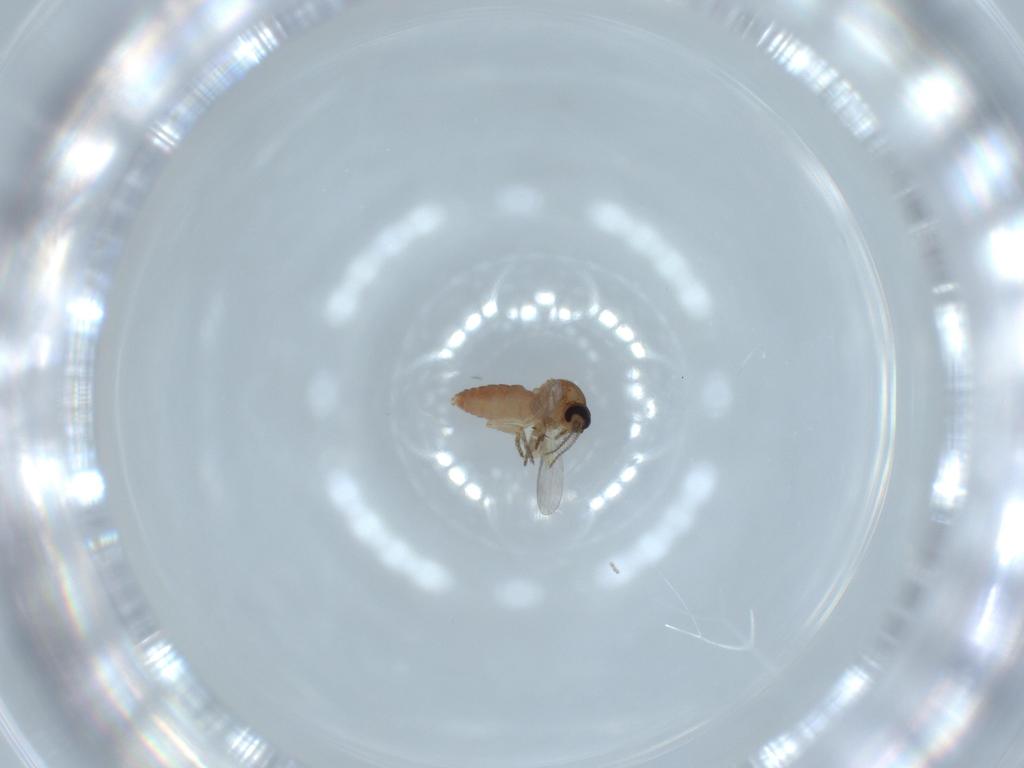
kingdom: Animalia
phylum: Arthropoda
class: Insecta
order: Diptera
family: Ceratopogonidae
